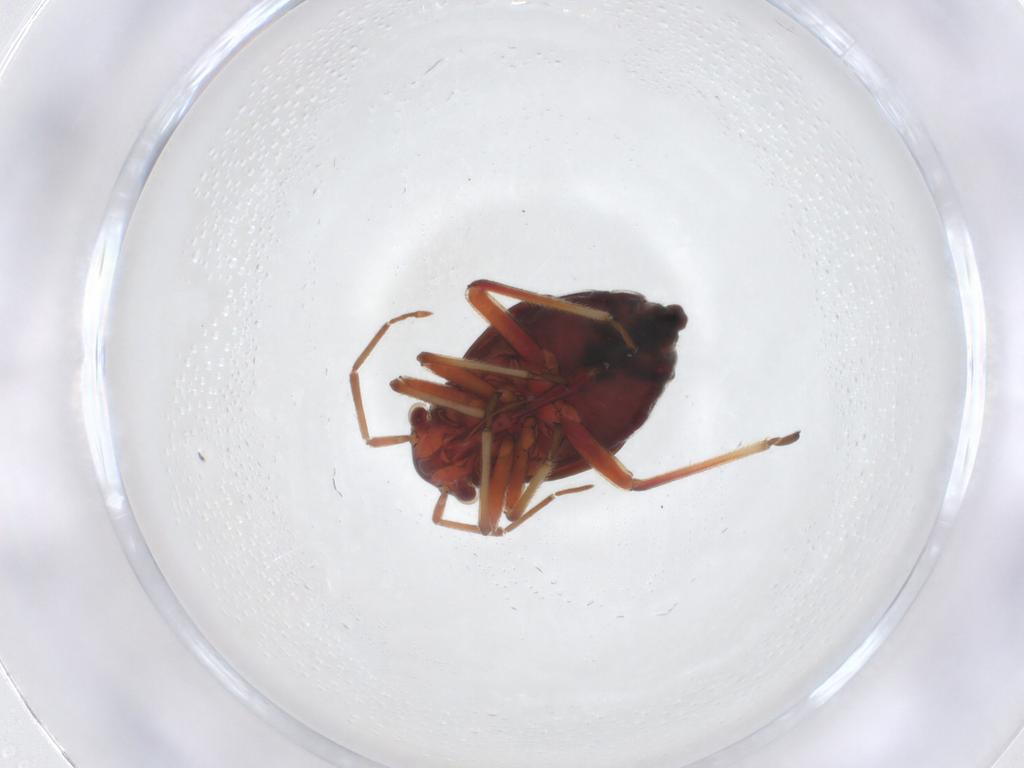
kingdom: Animalia
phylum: Arthropoda
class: Insecta
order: Hemiptera
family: Miridae
